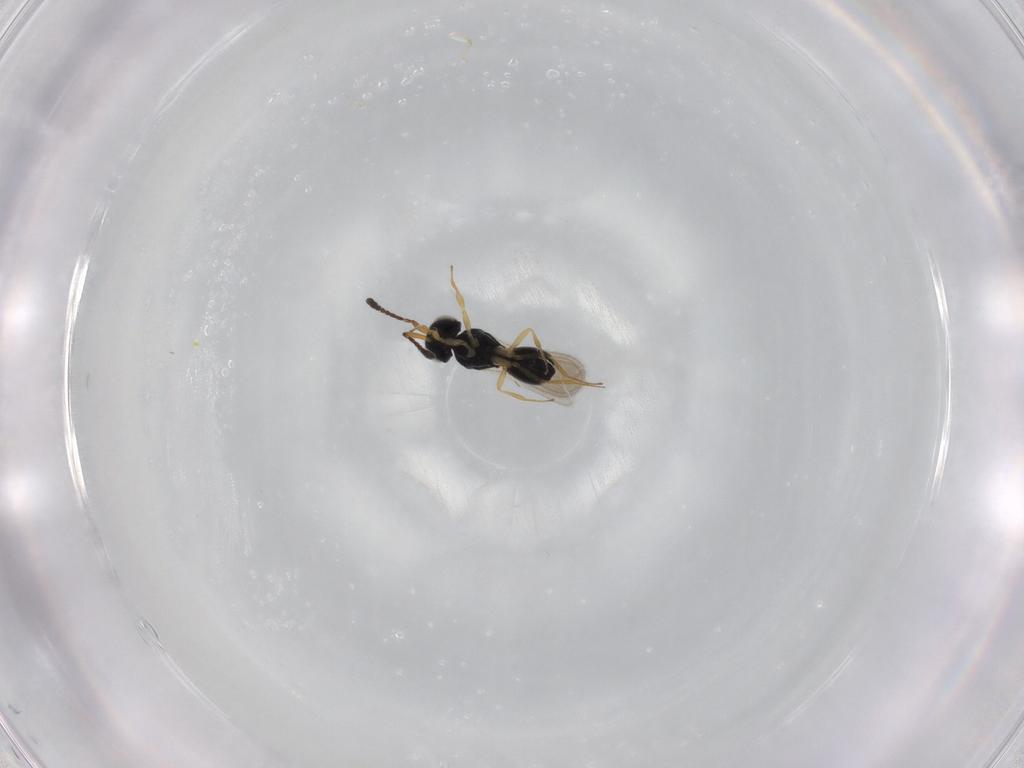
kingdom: Animalia
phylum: Arthropoda
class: Insecta
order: Hymenoptera
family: Scelionidae
